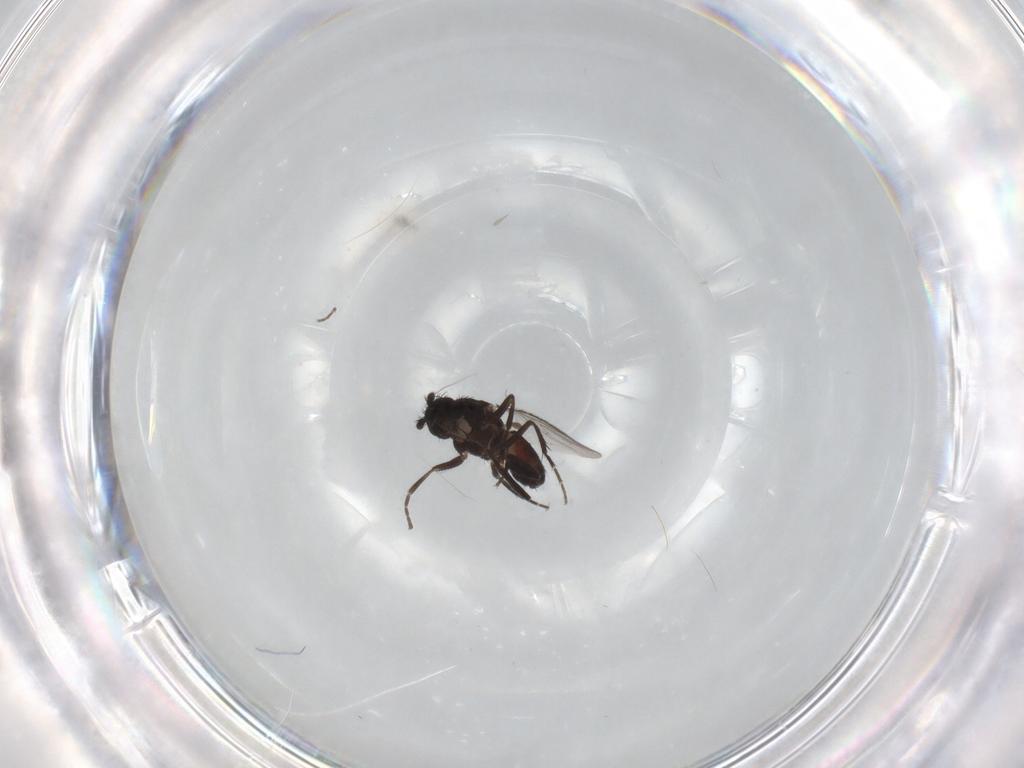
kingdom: Animalia
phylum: Arthropoda
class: Insecta
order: Diptera
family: Sphaeroceridae
